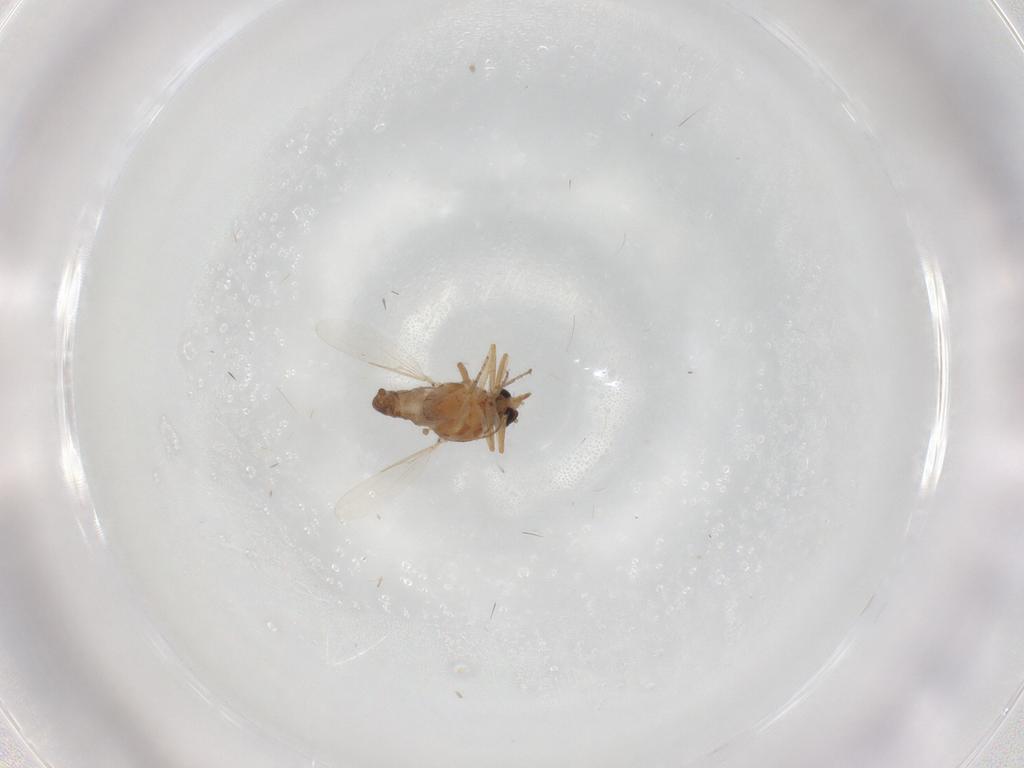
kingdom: Animalia
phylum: Arthropoda
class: Insecta
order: Diptera
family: Ceratopogonidae
